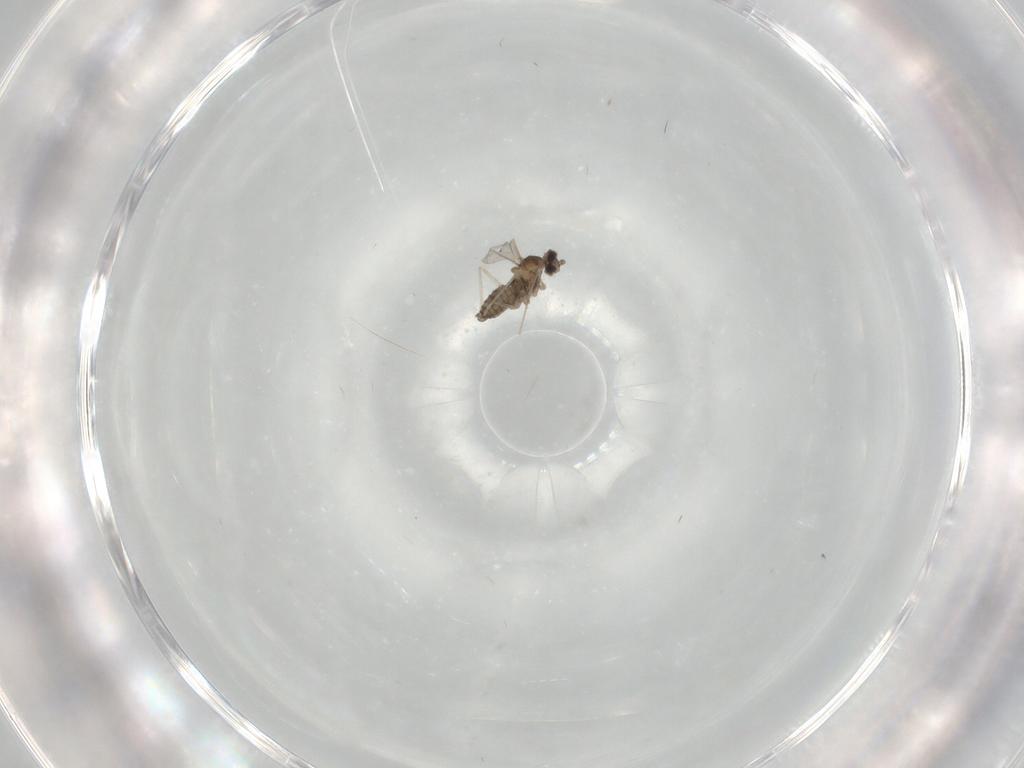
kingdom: Animalia
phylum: Arthropoda
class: Insecta
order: Diptera
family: Cecidomyiidae
